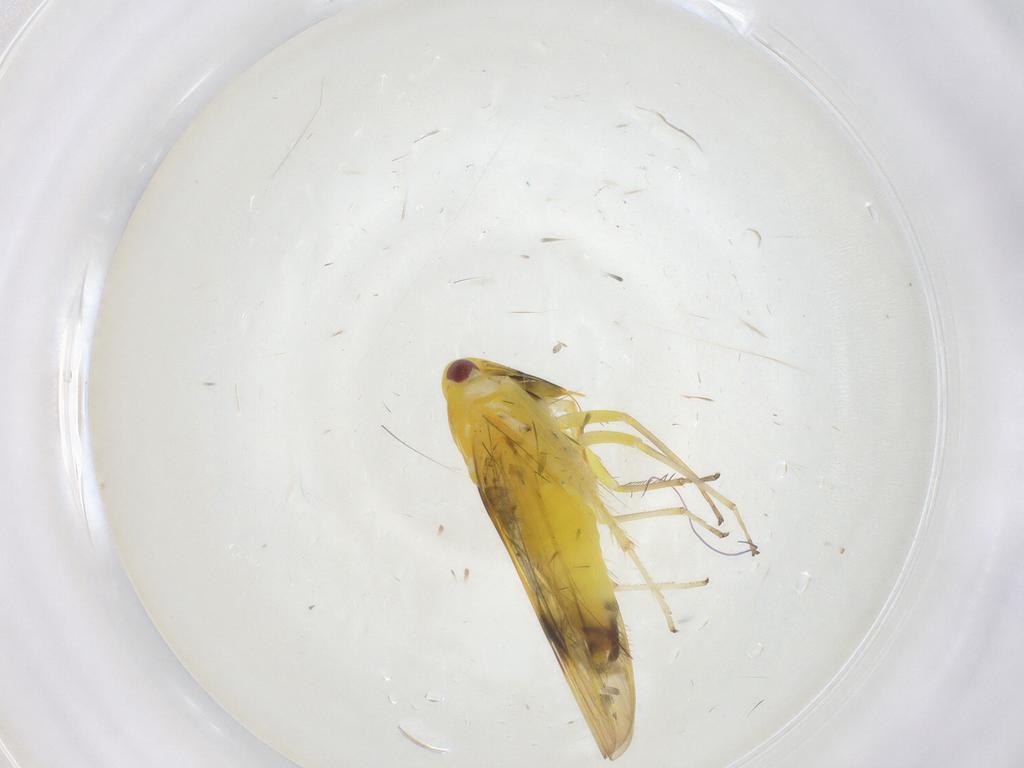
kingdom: Animalia
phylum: Arthropoda
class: Insecta
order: Hemiptera
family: Cicadellidae
